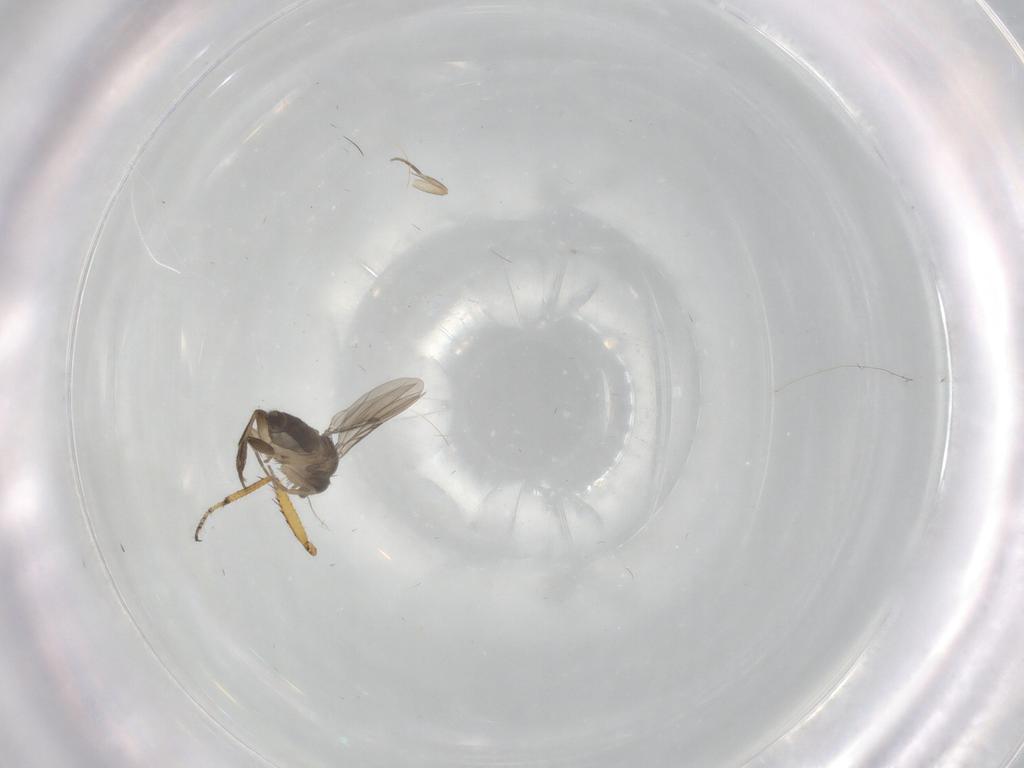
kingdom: Animalia
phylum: Arthropoda
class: Insecta
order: Diptera
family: Phoridae
